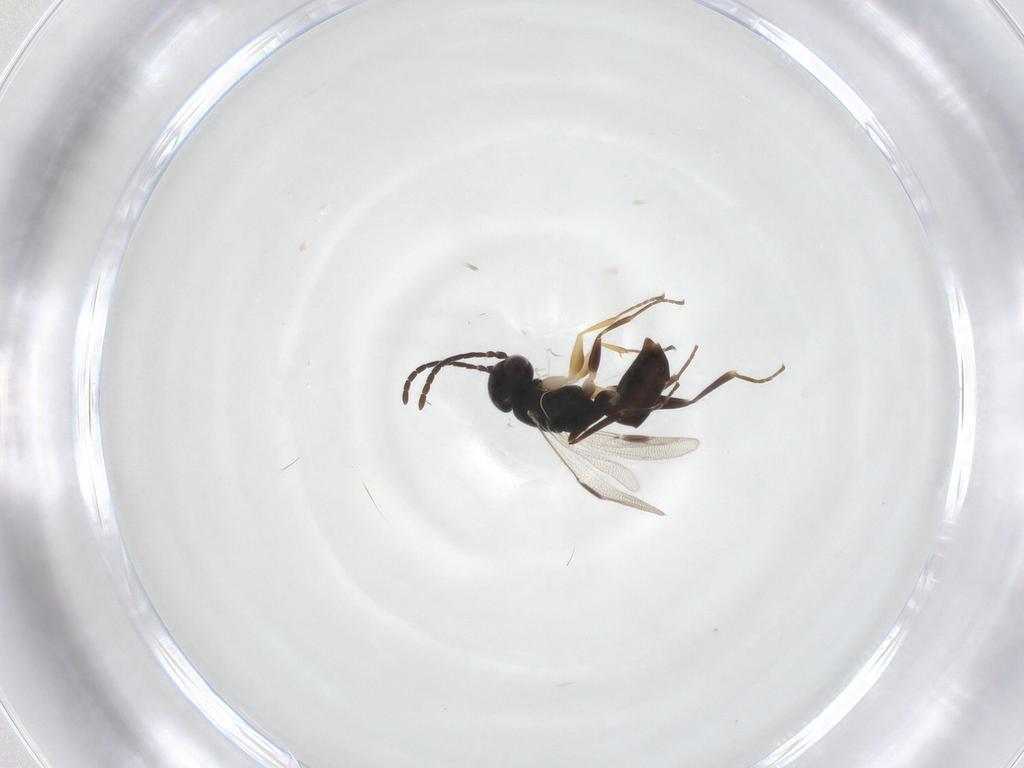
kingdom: Animalia
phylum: Arthropoda
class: Insecta
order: Hymenoptera
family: Dryinidae
